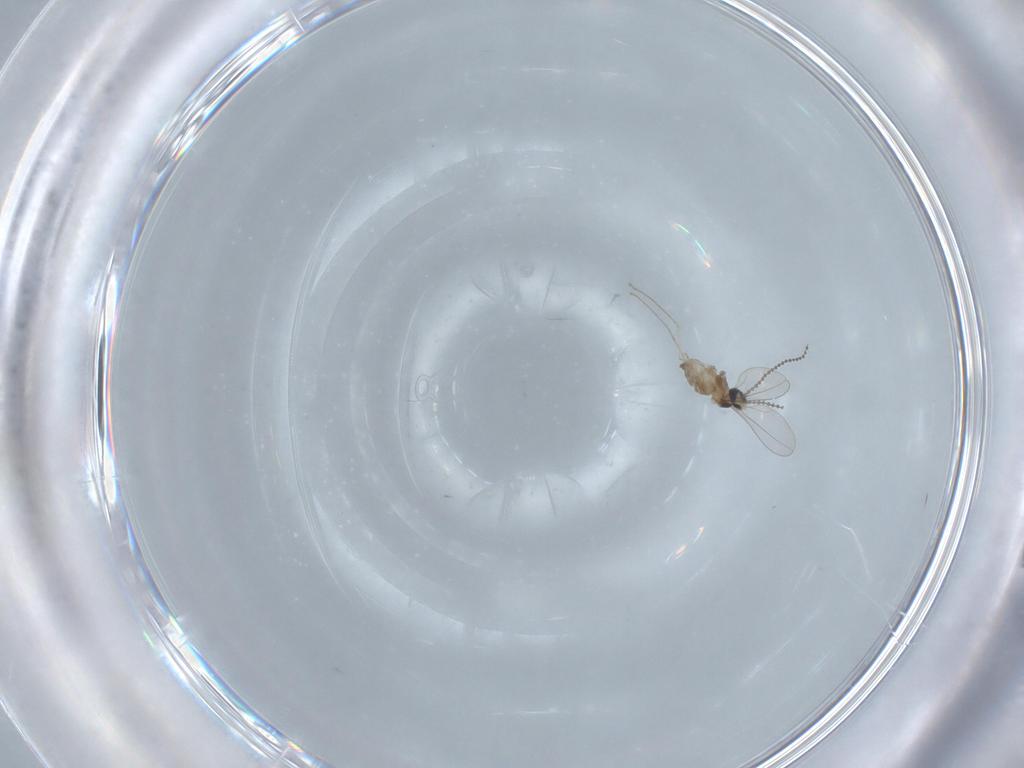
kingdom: Animalia
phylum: Arthropoda
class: Insecta
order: Diptera
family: Cecidomyiidae
